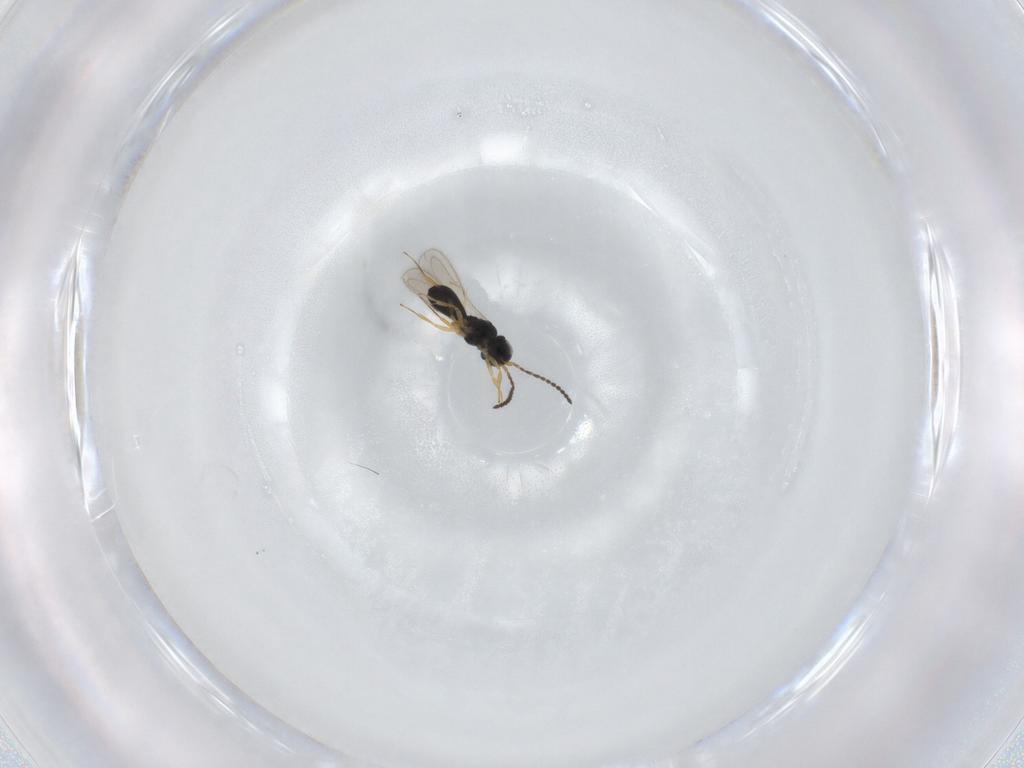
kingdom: Animalia
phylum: Arthropoda
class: Insecta
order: Hymenoptera
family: Scelionidae
